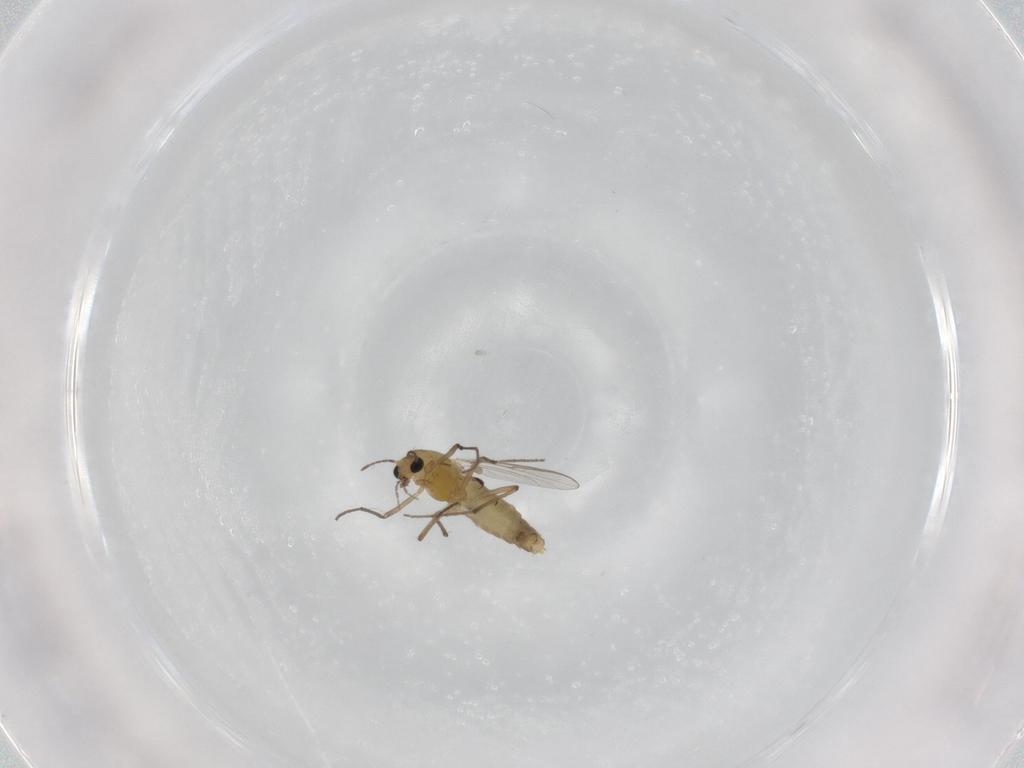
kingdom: Animalia
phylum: Arthropoda
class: Insecta
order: Diptera
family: Chironomidae
